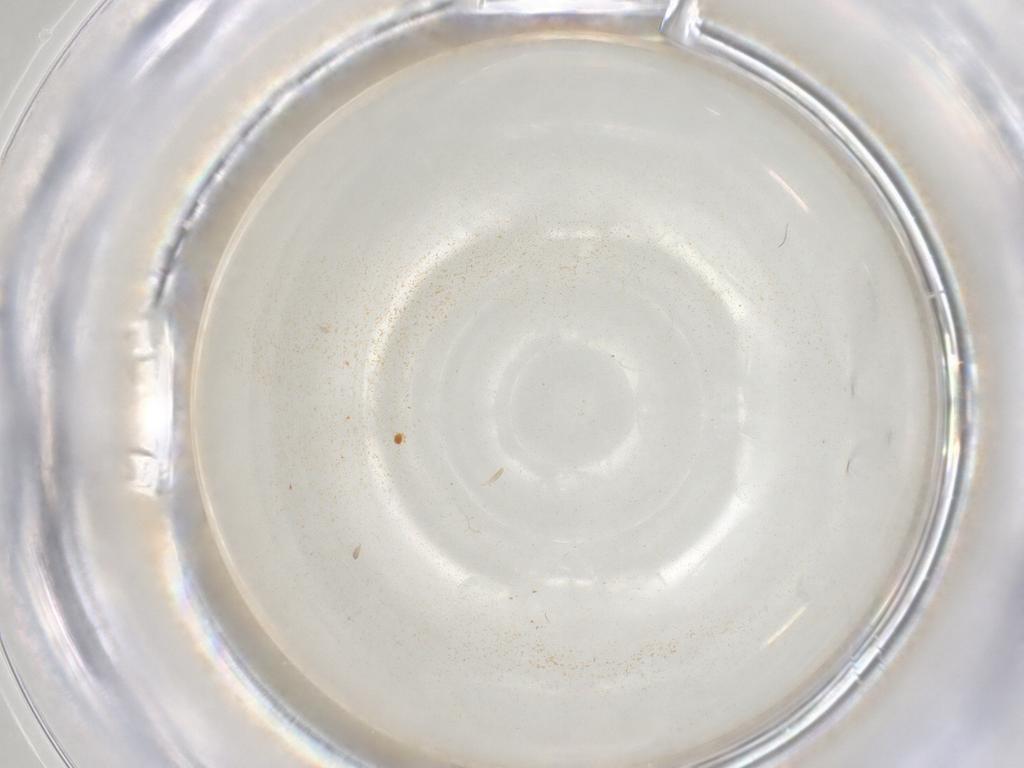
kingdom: Animalia
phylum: Arthropoda
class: Insecta
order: Hymenoptera
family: Mymaridae
